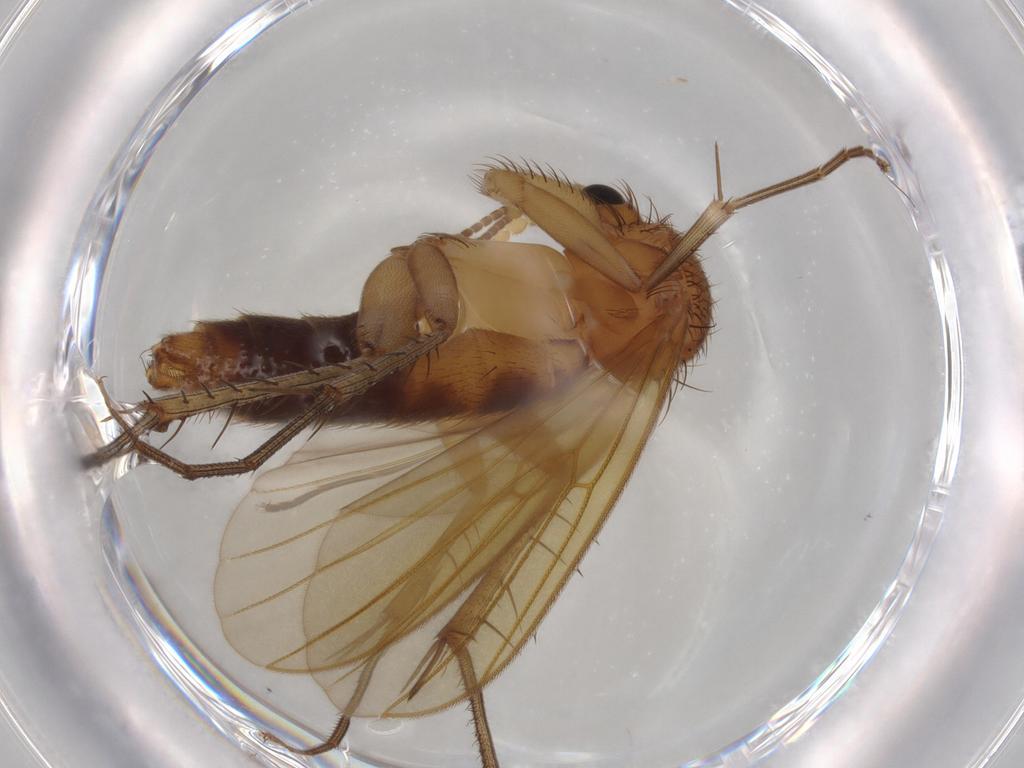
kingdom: Animalia
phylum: Arthropoda
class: Insecta
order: Diptera
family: Mycetophilidae
